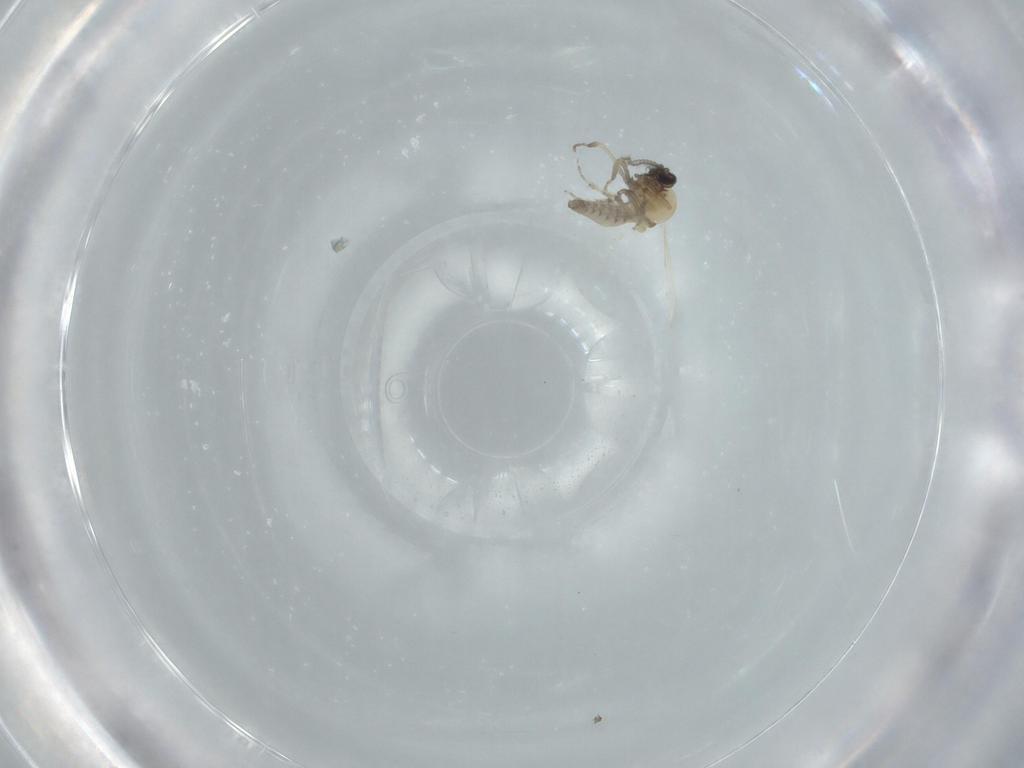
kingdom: Animalia
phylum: Arthropoda
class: Insecta
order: Diptera
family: Ceratopogonidae
